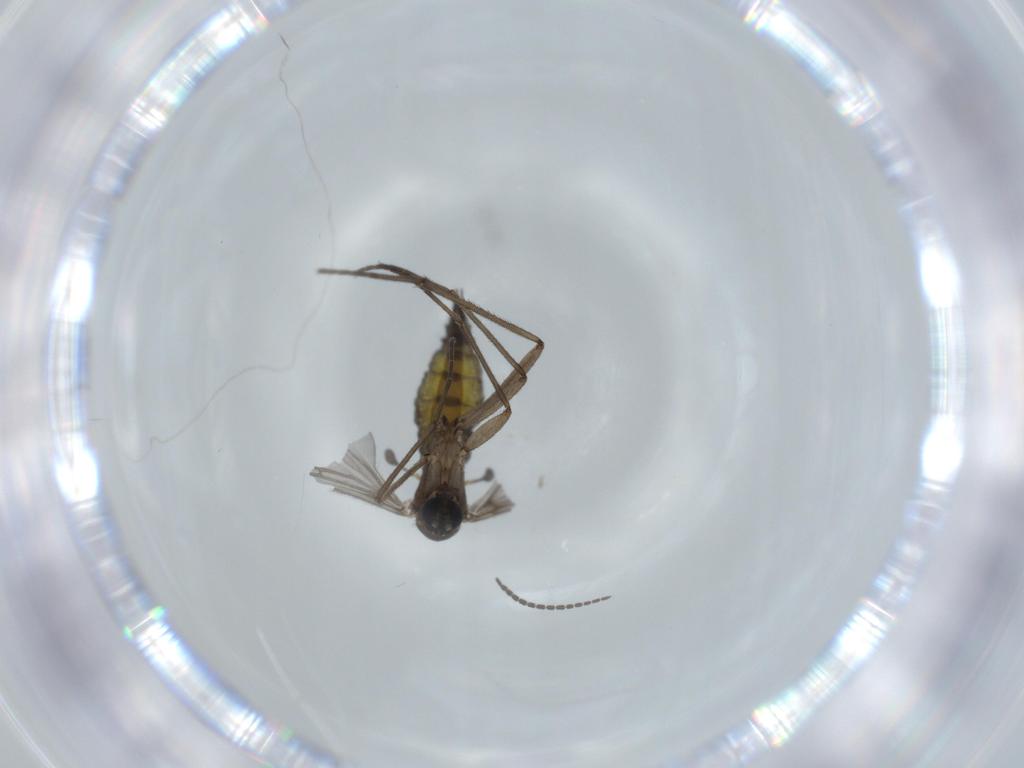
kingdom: Animalia
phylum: Arthropoda
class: Insecta
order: Diptera
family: Sciaridae
